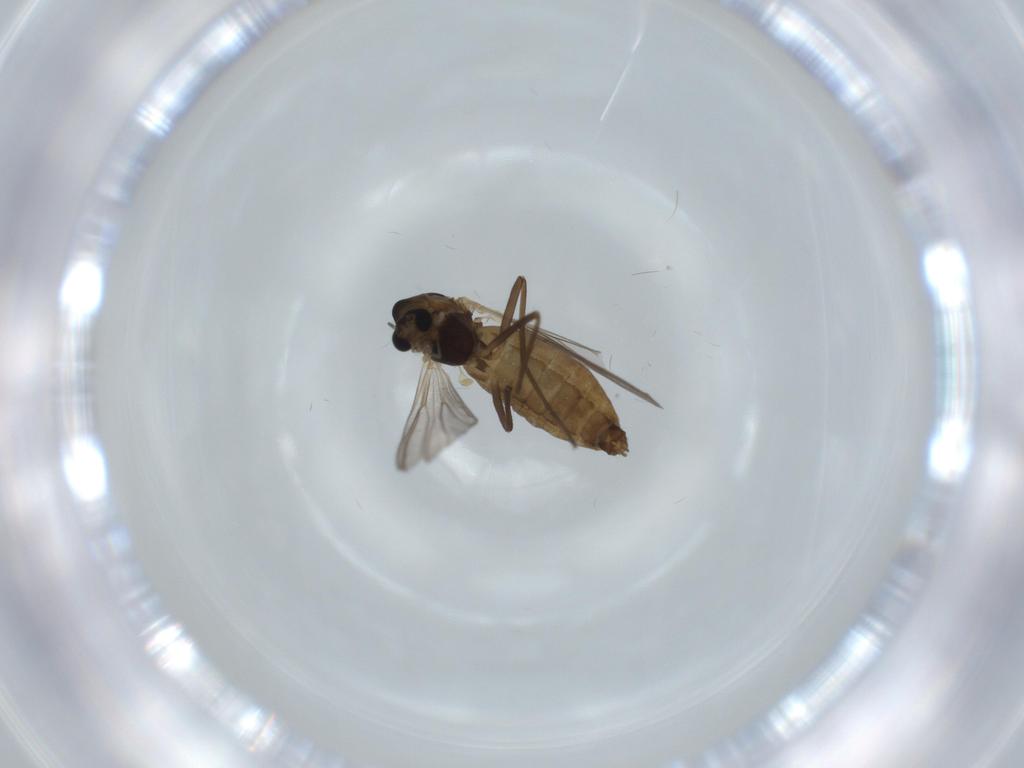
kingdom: Animalia
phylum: Arthropoda
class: Insecta
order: Diptera
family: Chironomidae
